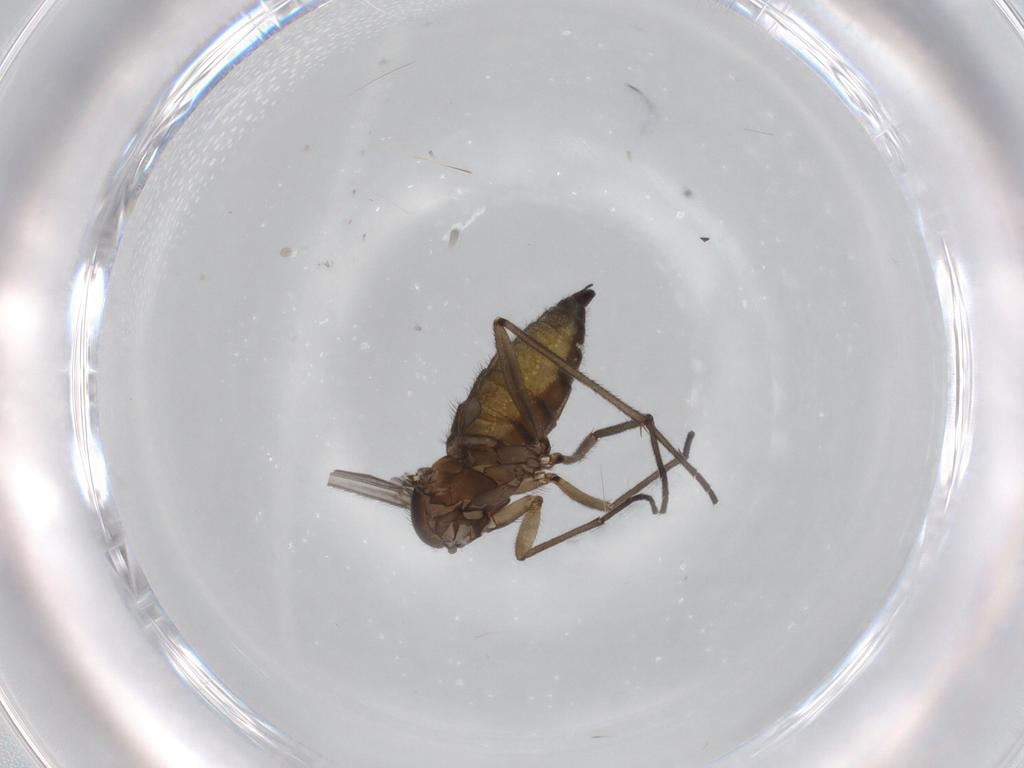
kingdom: Animalia
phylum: Arthropoda
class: Insecta
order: Diptera
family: Sciaridae
